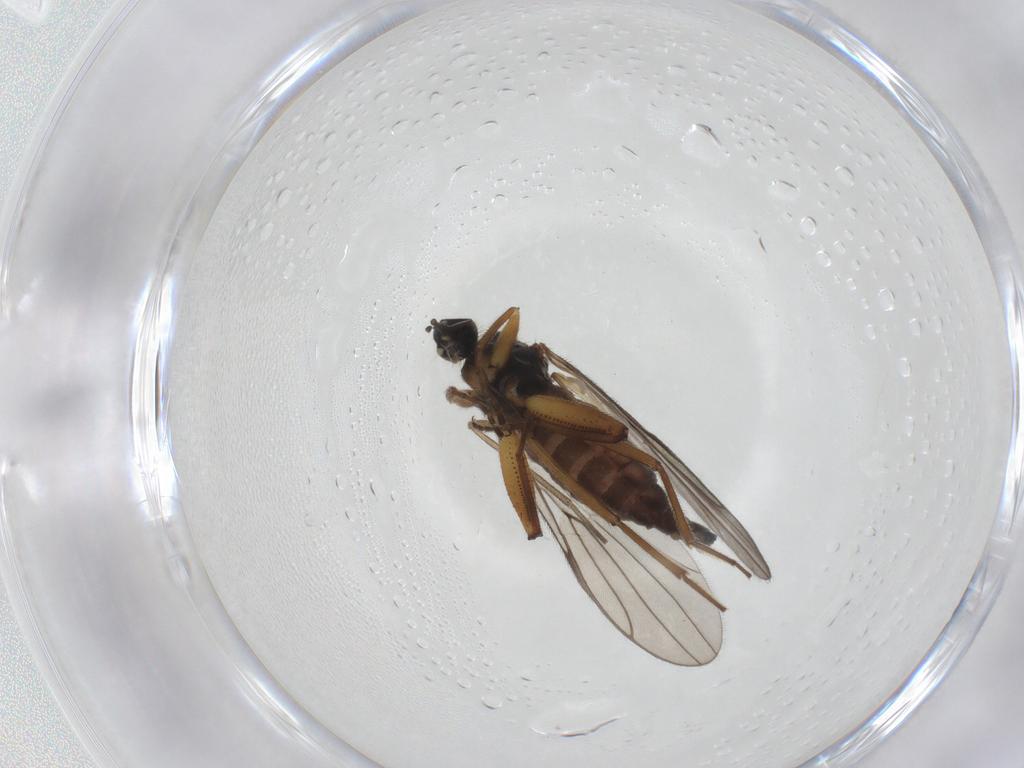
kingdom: Animalia
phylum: Arthropoda
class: Insecta
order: Diptera
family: Hybotidae
